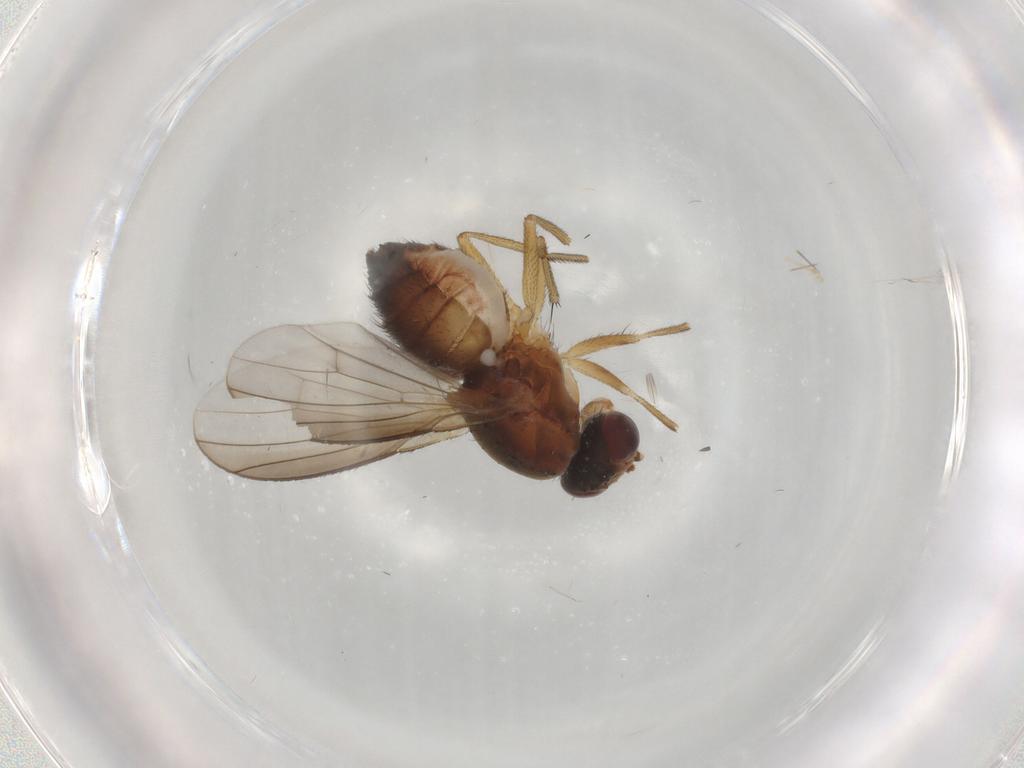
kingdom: Animalia
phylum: Arthropoda
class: Insecta
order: Diptera
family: Heleomyzidae
